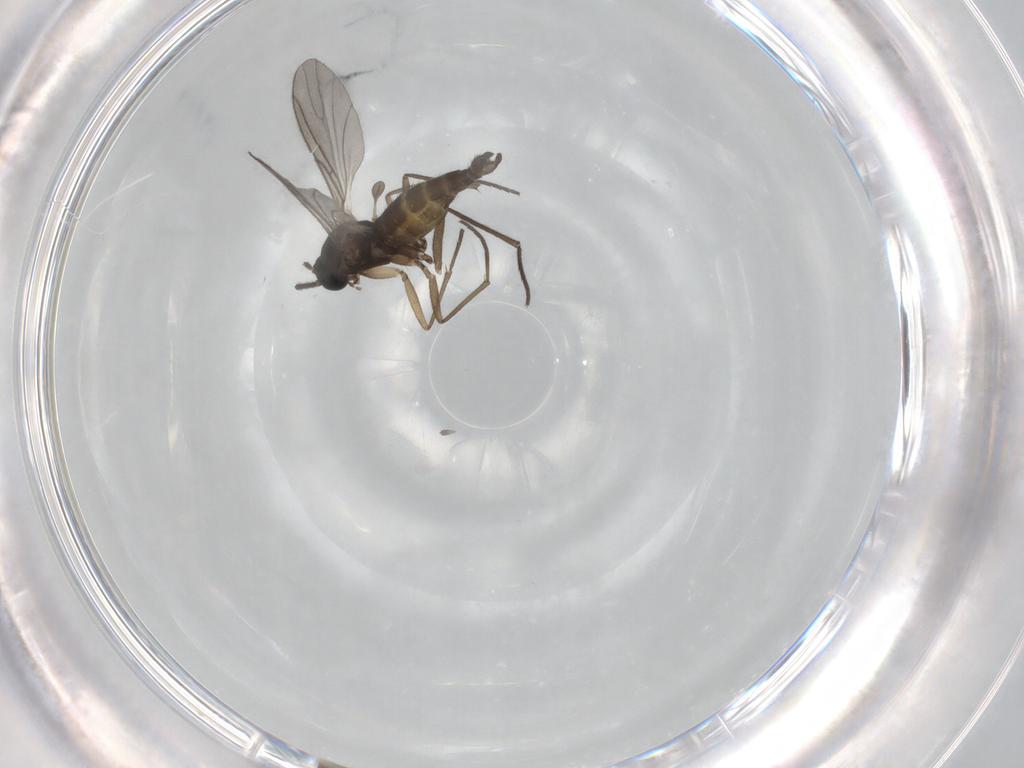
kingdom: Animalia
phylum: Arthropoda
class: Insecta
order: Diptera
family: Sciaridae
